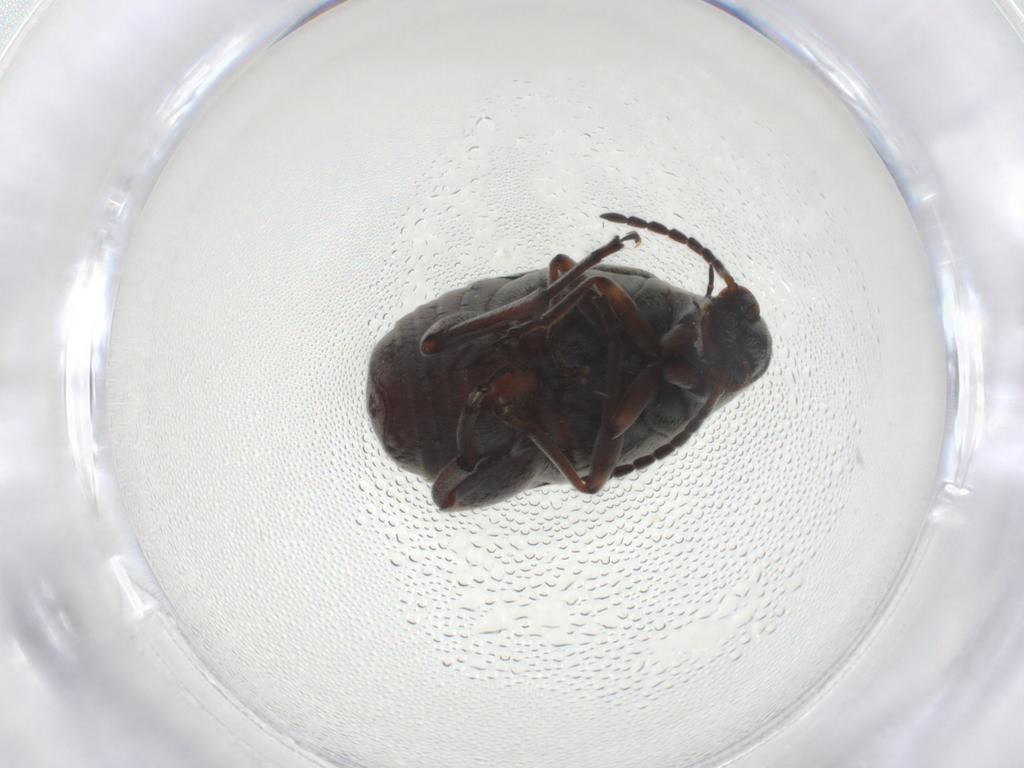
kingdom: Animalia
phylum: Arthropoda
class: Insecta
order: Coleoptera
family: Chrysomelidae
